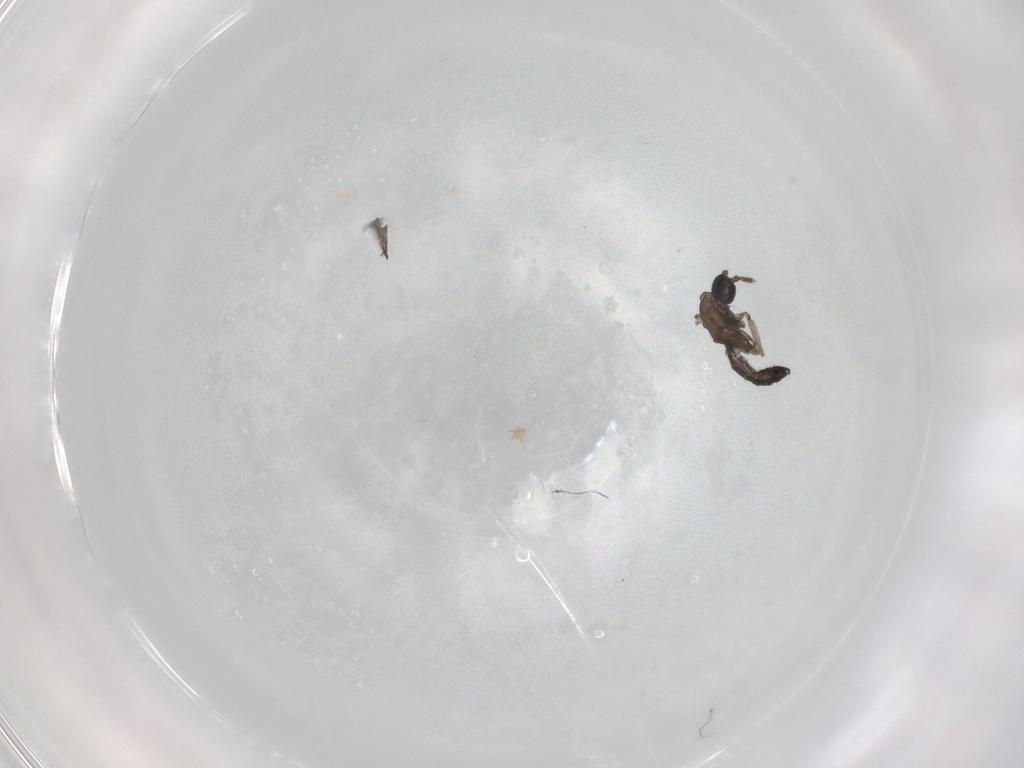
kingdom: Animalia
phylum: Arthropoda
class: Insecta
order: Diptera
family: Sciaridae
